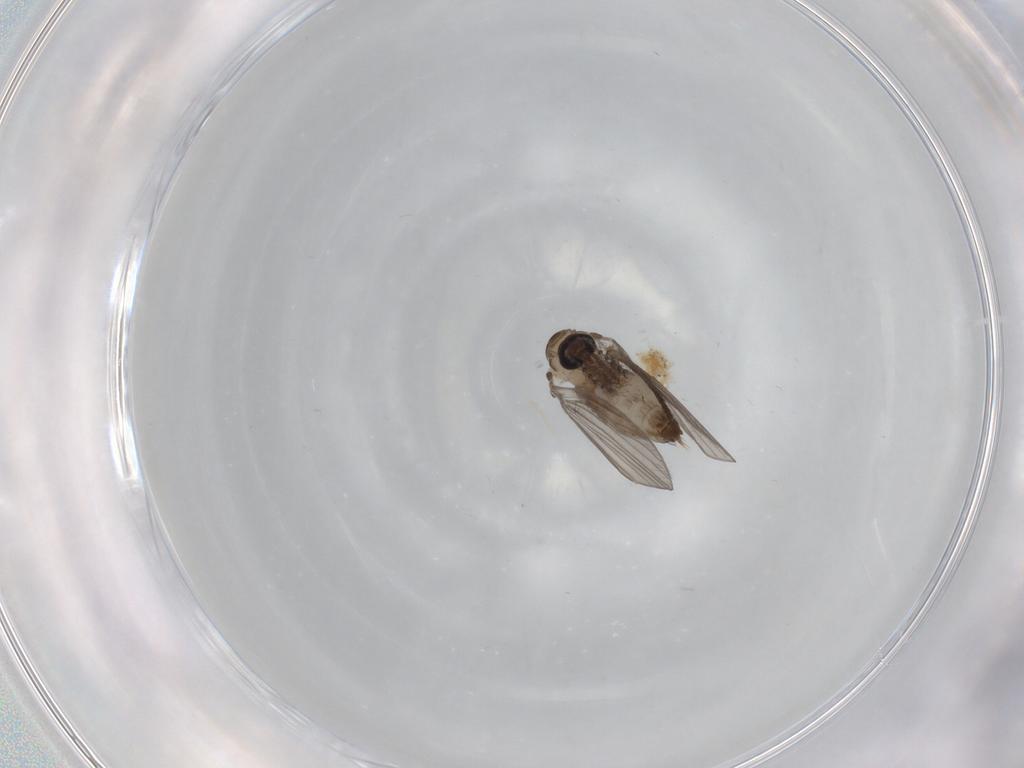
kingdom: Animalia
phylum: Arthropoda
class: Insecta
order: Diptera
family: Psychodidae
